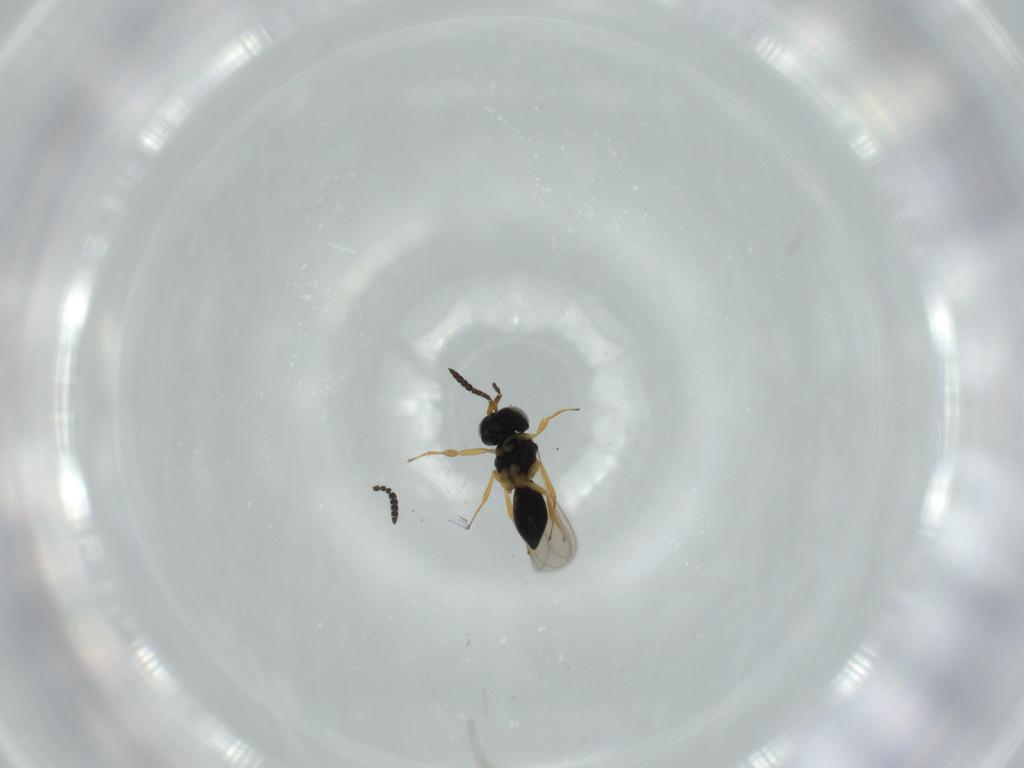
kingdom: Animalia
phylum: Arthropoda
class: Insecta
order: Hymenoptera
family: Scelionidae
